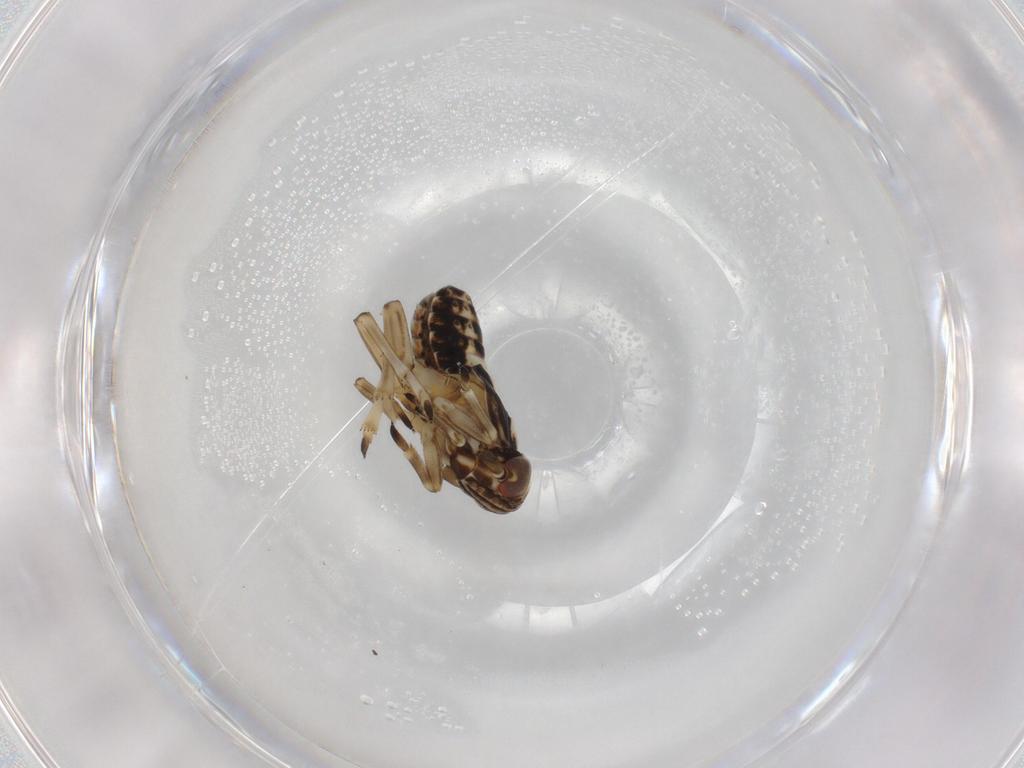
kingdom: Animalia
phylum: Arthropoda
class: Insecta
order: Hemiptera
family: Delphacidae
